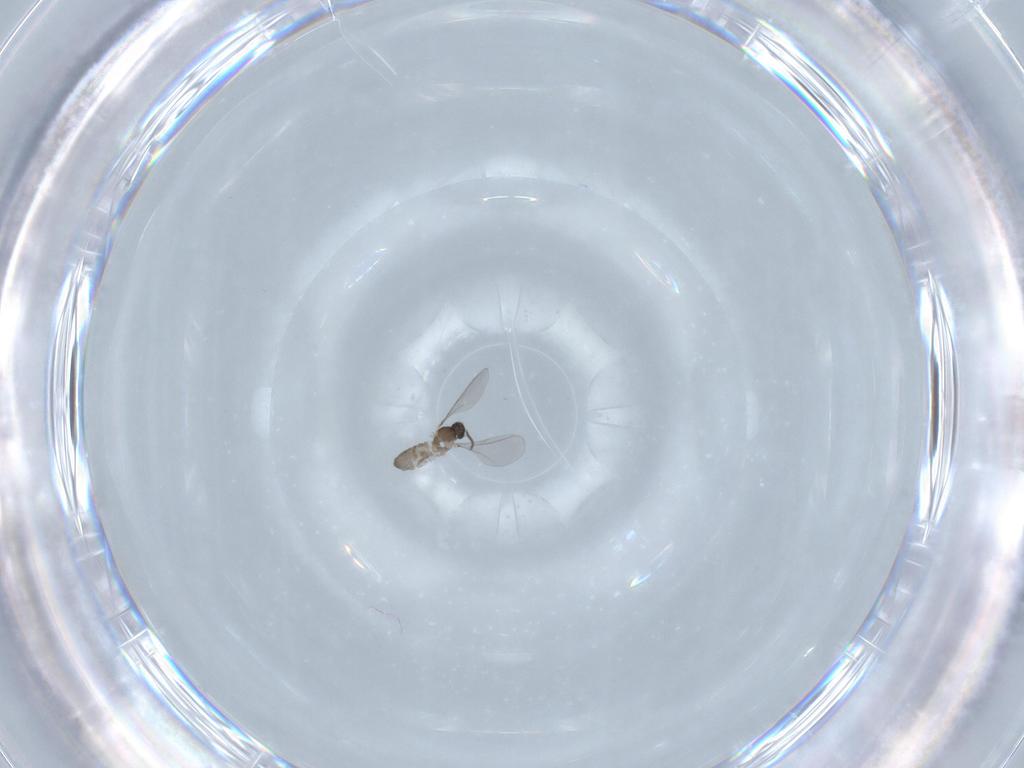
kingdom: Animalia
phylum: Arthropoda
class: Insecta
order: Diptera
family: Cecidomyiidae
